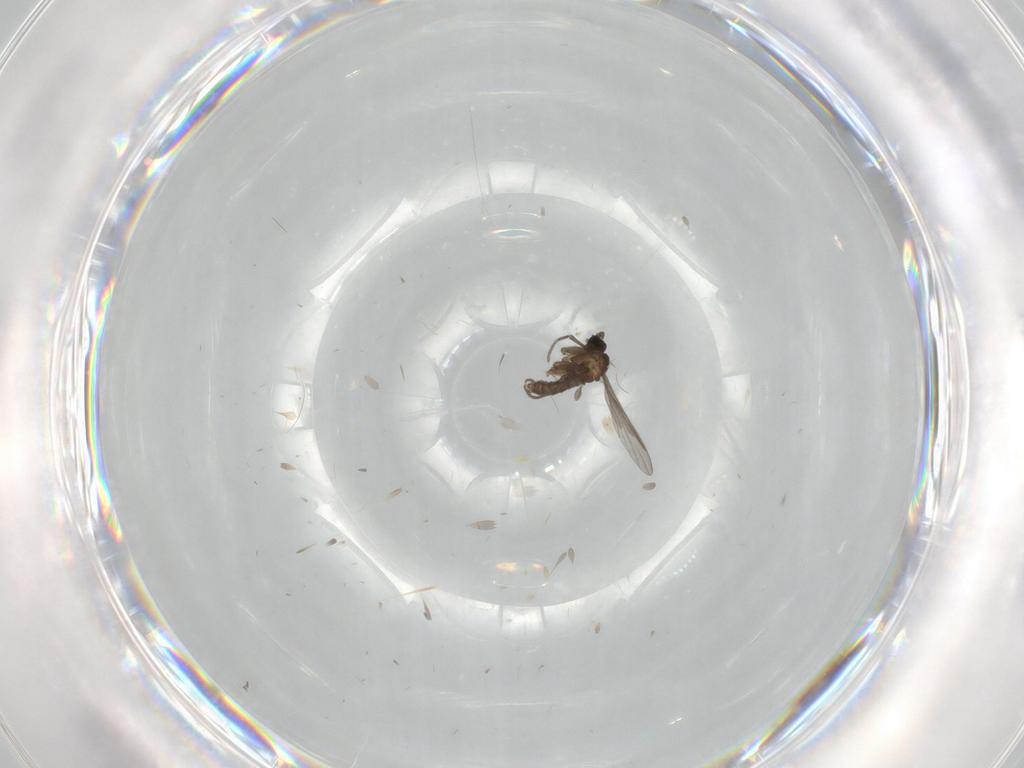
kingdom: Animalia
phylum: Arthropoda
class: Insecta
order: Diptera
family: Sciaridae
